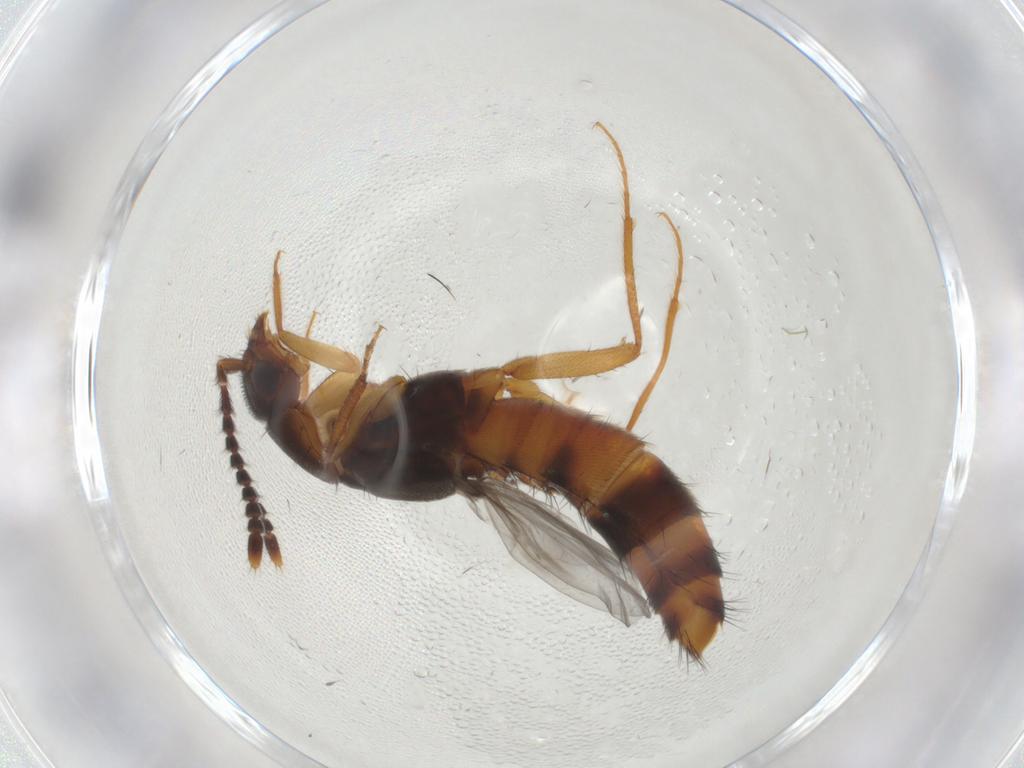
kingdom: Animalia
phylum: Arthropoda
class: Insecta
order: Coleoptera
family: Staphylinidae
